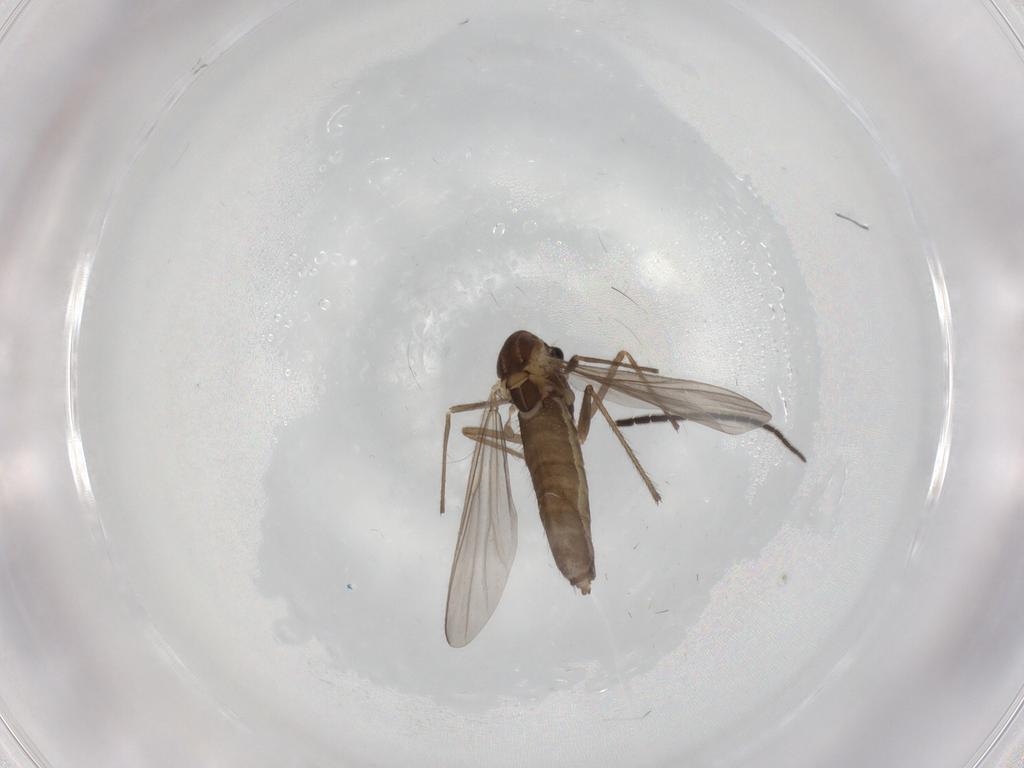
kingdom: Animalia
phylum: Arthropoda
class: Insecta
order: Diptera
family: Chironomidae
